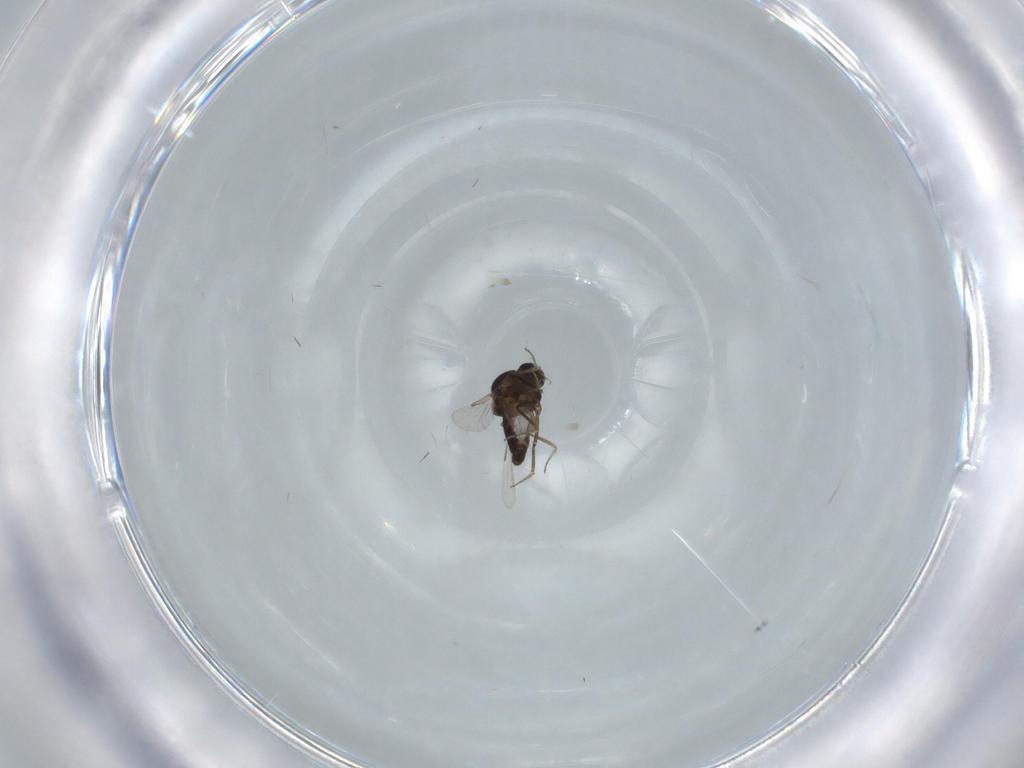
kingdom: Animalia
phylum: Arthropoda
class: Insecta
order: Diptera
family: Ceratopogonidae
